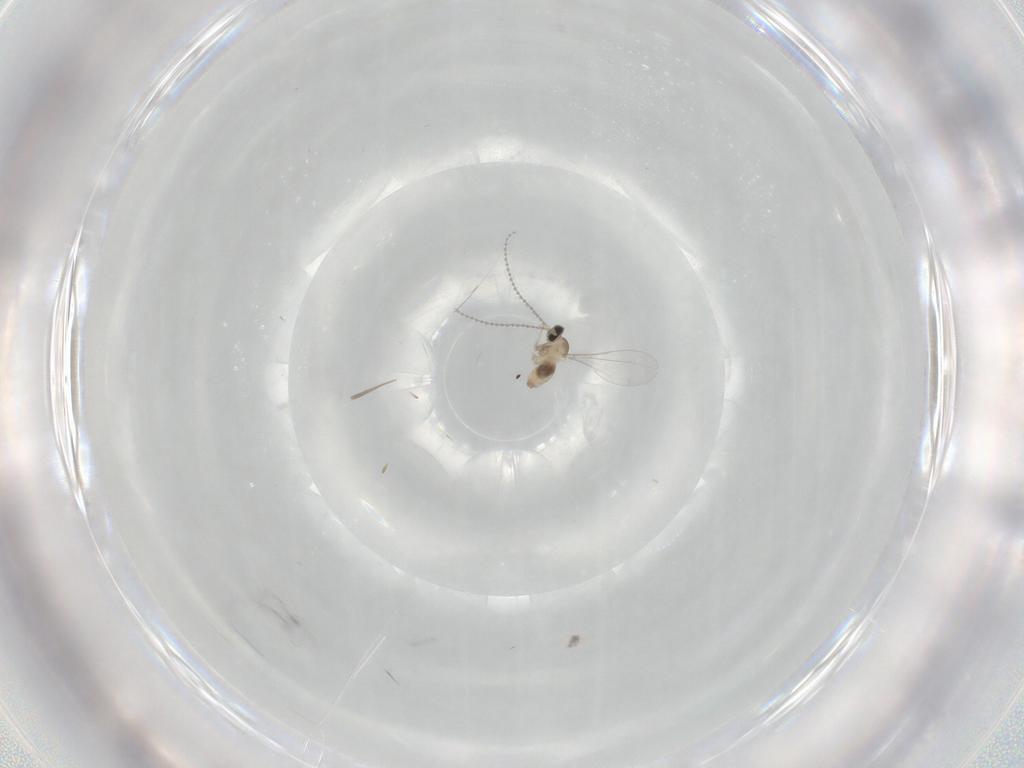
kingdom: Animalia
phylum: Arthropoda
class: Insecta
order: Diptera
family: Cecidomyiidae
